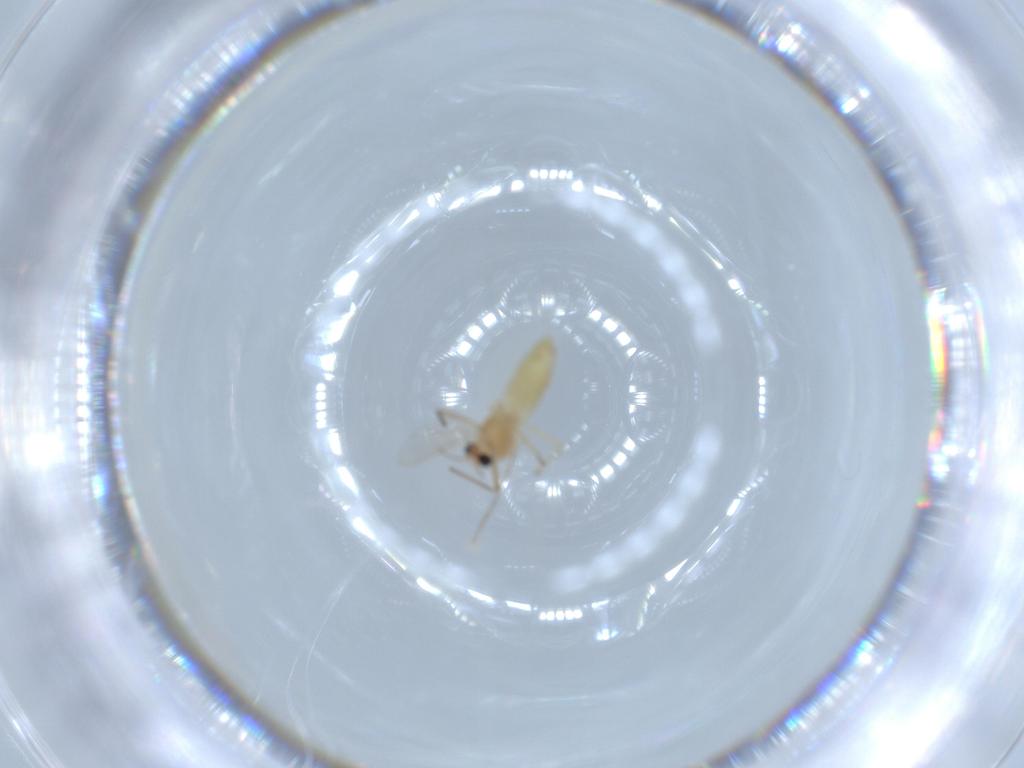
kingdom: Animalia
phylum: Arthropoda
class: Insecta
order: Diptera
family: Chironomidae
